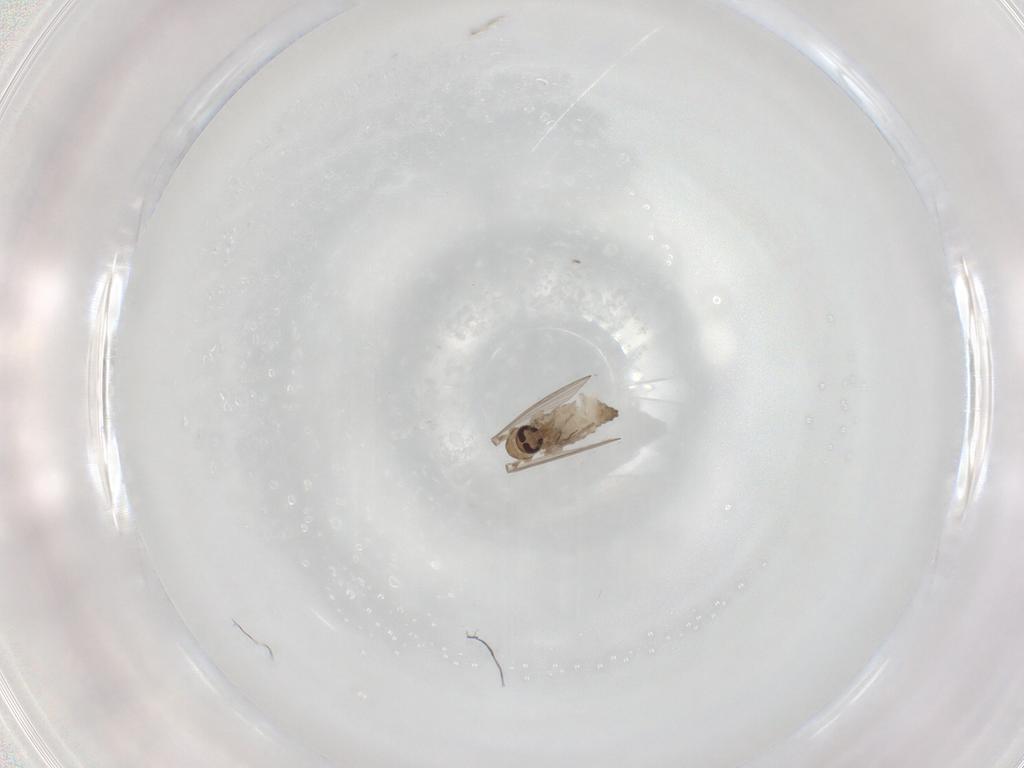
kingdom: Animalia
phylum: Arthropoda
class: Insecta
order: Diptera
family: Psychodidae
